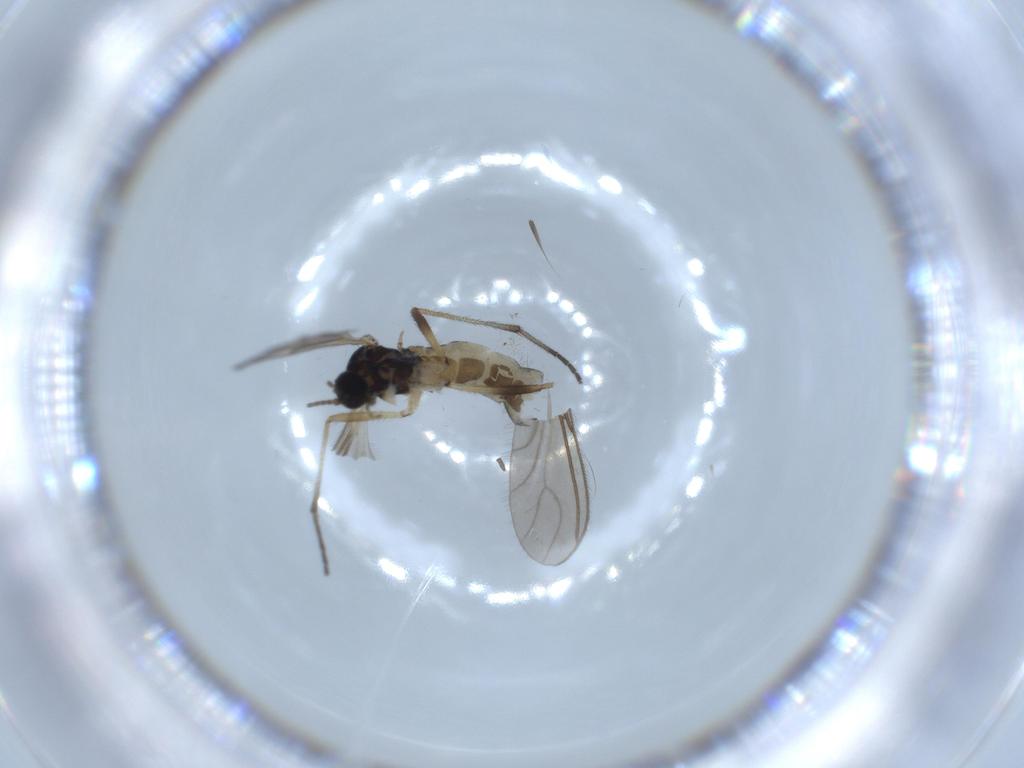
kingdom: Animalia
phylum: Arthropoda
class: Insecta
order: Diptera
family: Sciaridae
